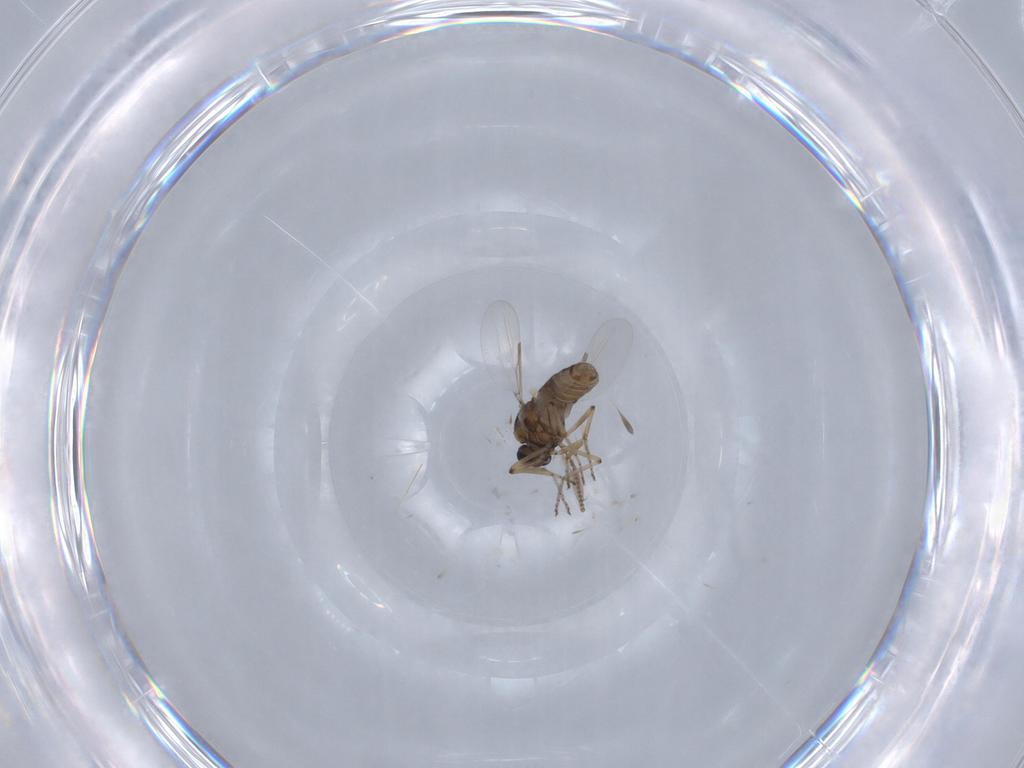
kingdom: Animalia
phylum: Arthropoda
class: Insecta
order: Diptera
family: Ceratopogonidae
